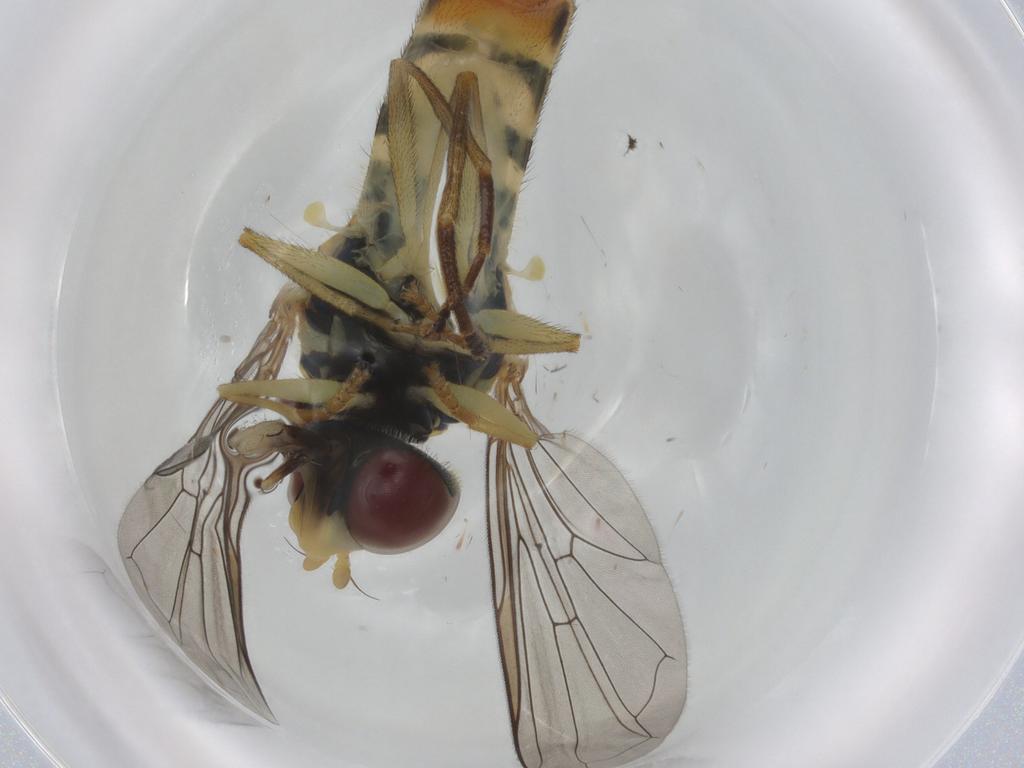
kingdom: Animalia
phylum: Arthropoda
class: Insecta
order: Diptera
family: Syrphidae
